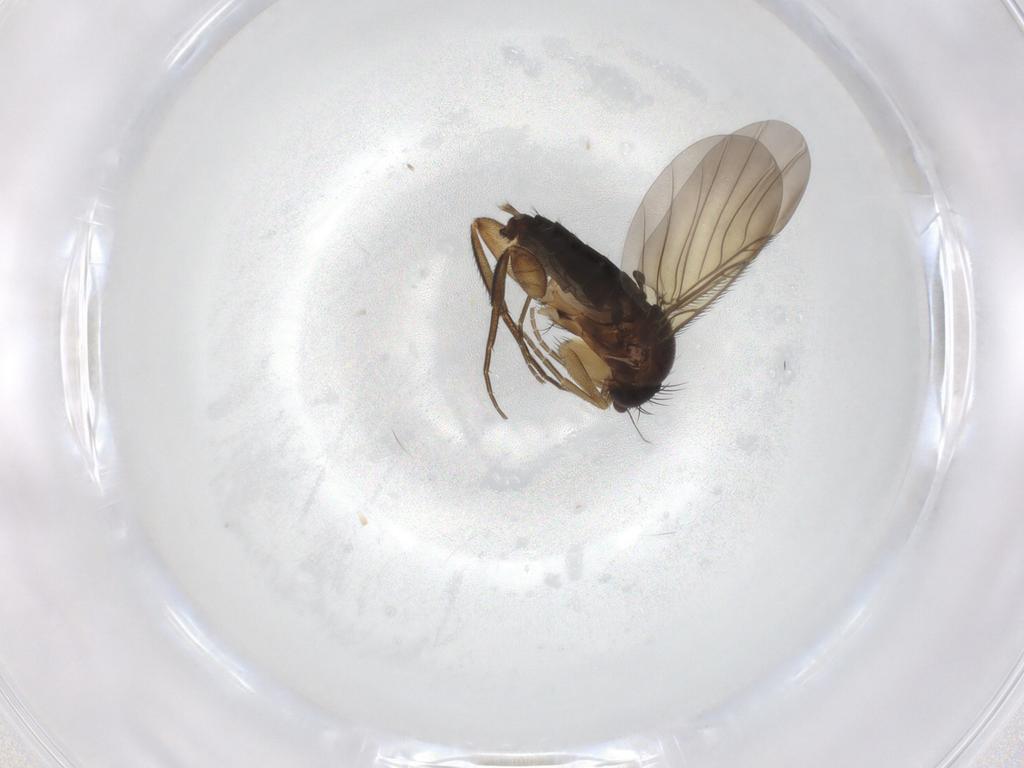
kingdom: Animalia
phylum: Arthropoda
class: Insecta
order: Diptera
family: Phoridae
